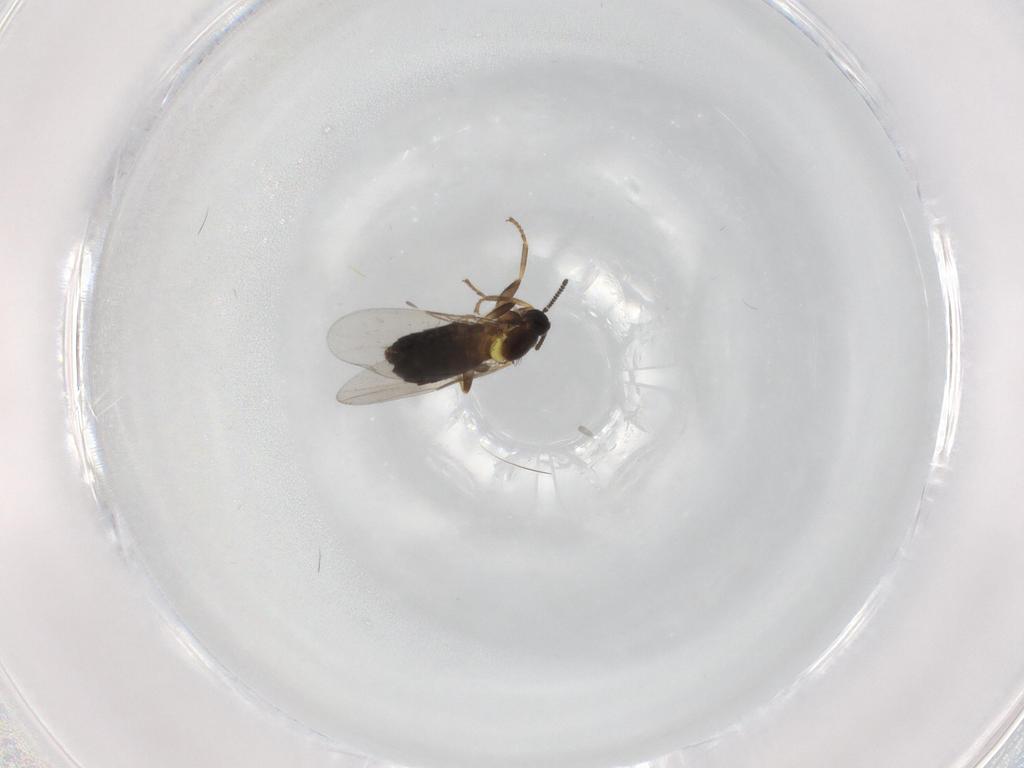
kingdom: Animalia
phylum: Arthropoda
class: Insecta
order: Diptera
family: Scatopsidae
